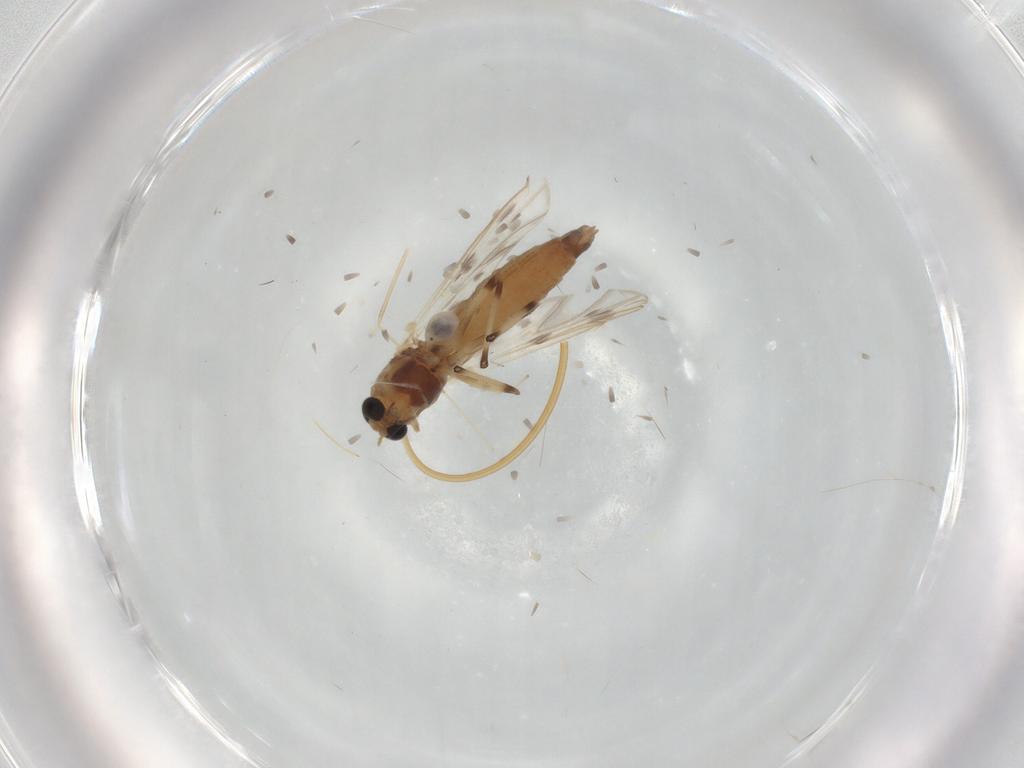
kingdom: Animalia
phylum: Arthropoda
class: Insecta
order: Diptera
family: Chironomidae
